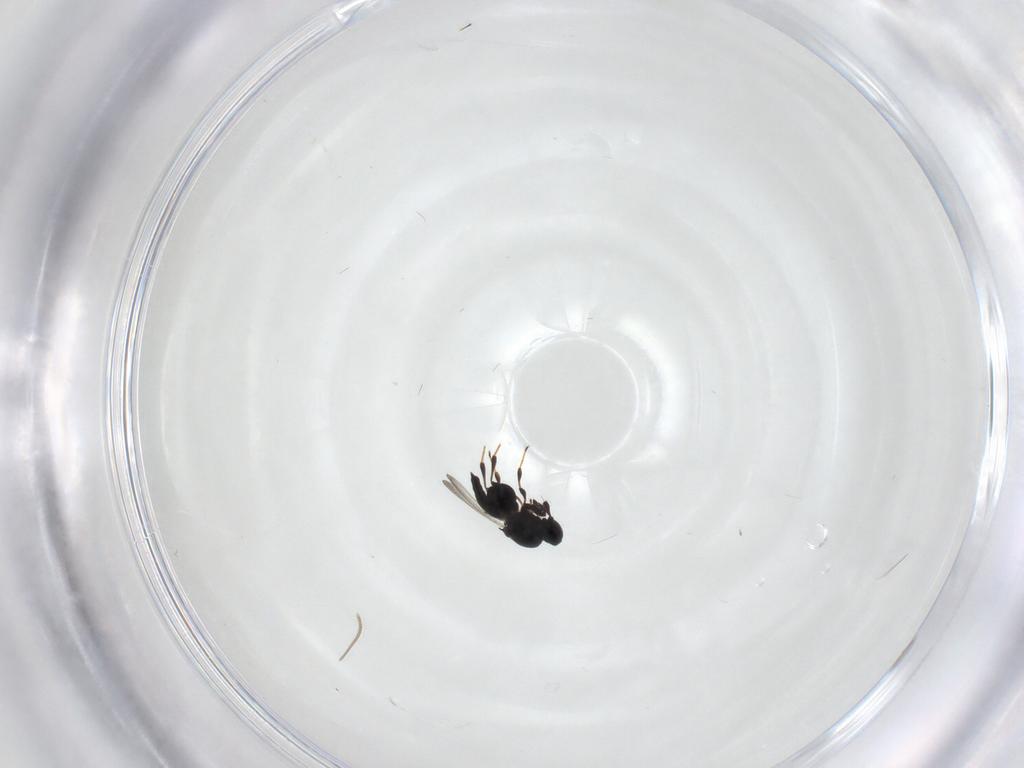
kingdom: Animalia
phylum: Arthropoda
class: Insecta
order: Hymenoptera
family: Platygastridae
